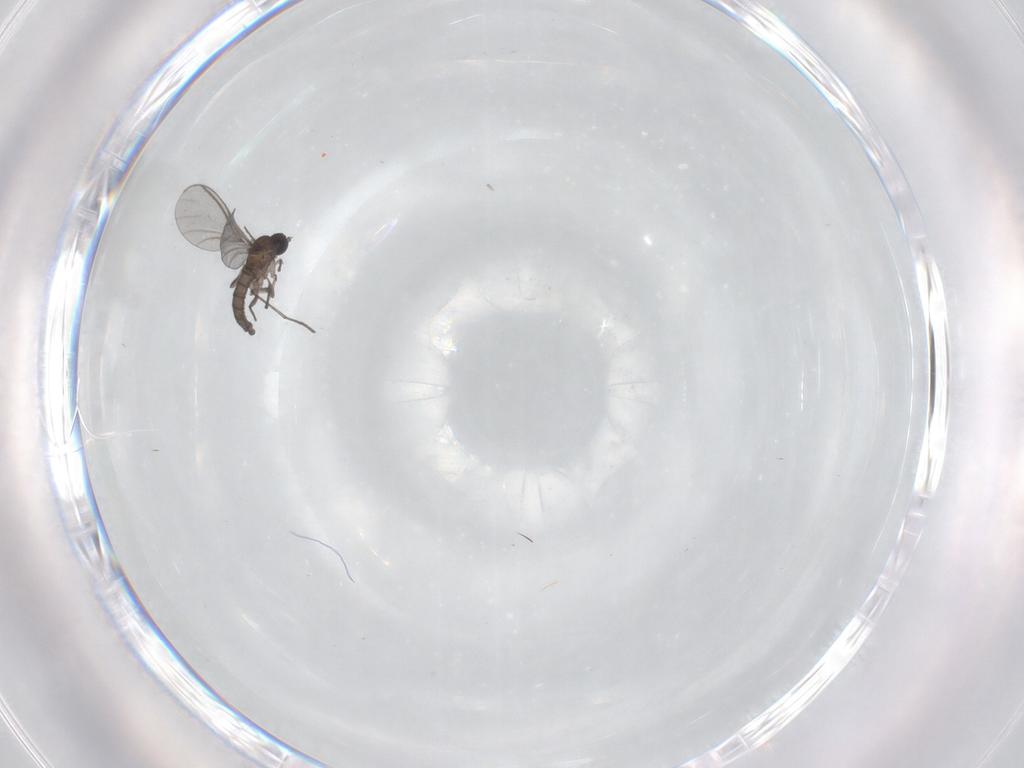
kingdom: Animalia
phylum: Arthropoda
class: Insecta
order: Diptera
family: Sciaridae
